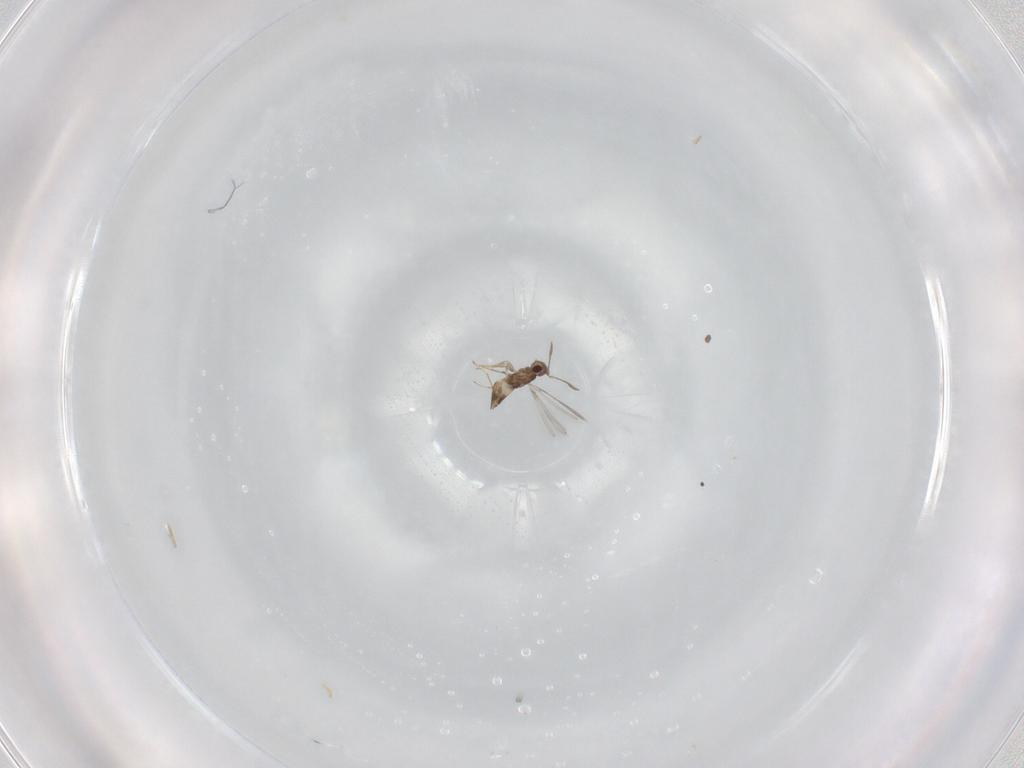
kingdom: Animalia
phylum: Arthropoda
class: Insecta
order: Hymenoptera
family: Mymaridae
